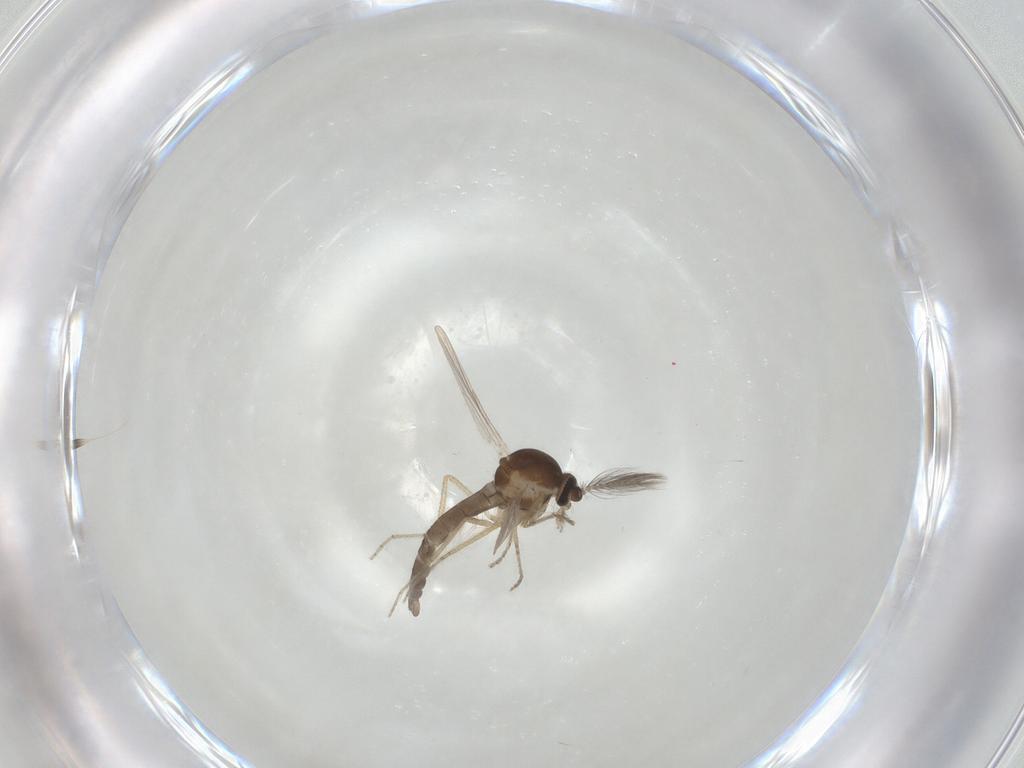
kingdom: Animalia
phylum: Arthropoda
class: Insecta
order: Diptera
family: Ceratopogonidae
